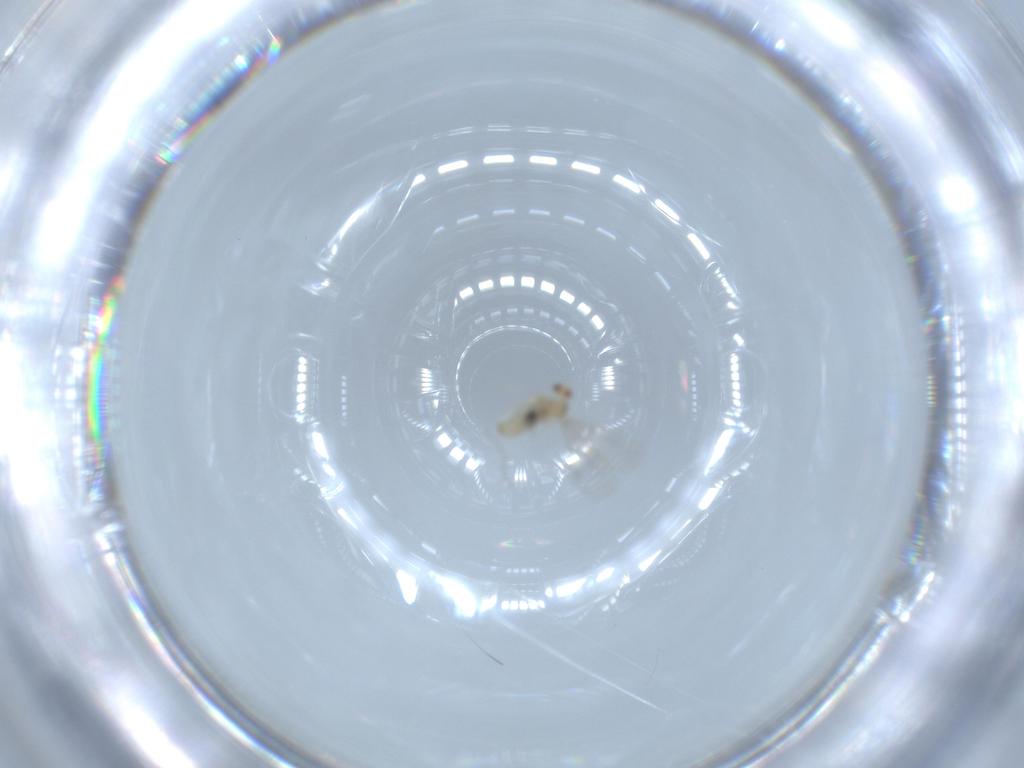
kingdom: Animalia
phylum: Arthropoda
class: Insecta
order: Diptera
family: Cecidomyiidae
